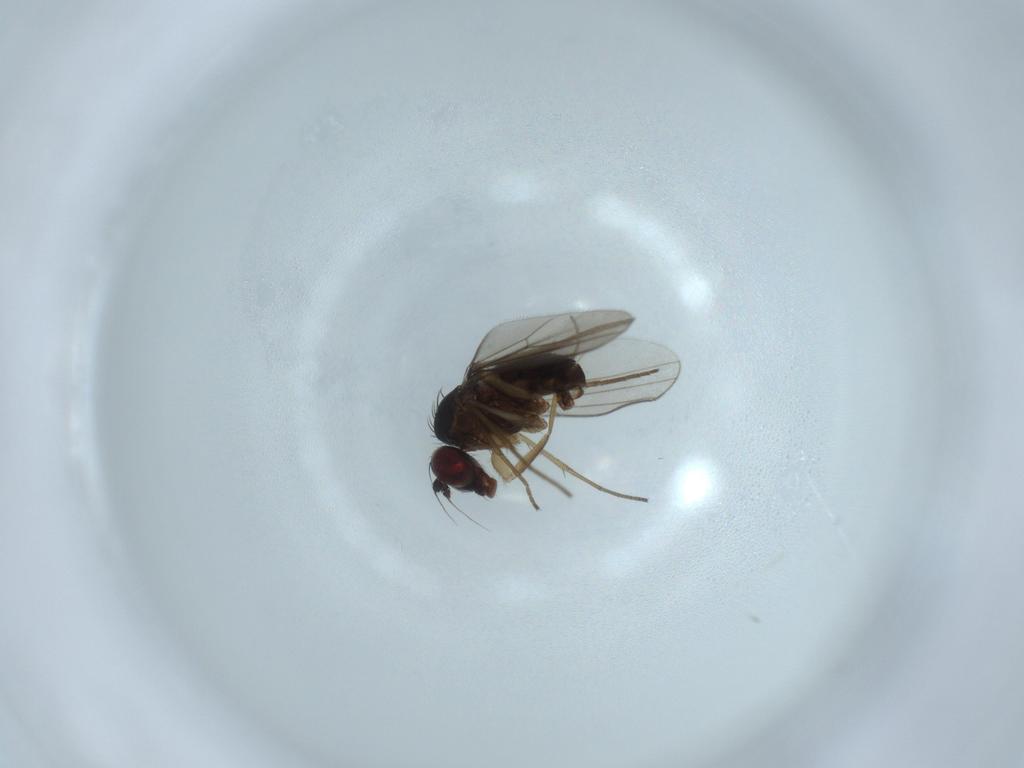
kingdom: Animalia
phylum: Arthropoda
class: Insecta
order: Diptera
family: Dolichopodidae
